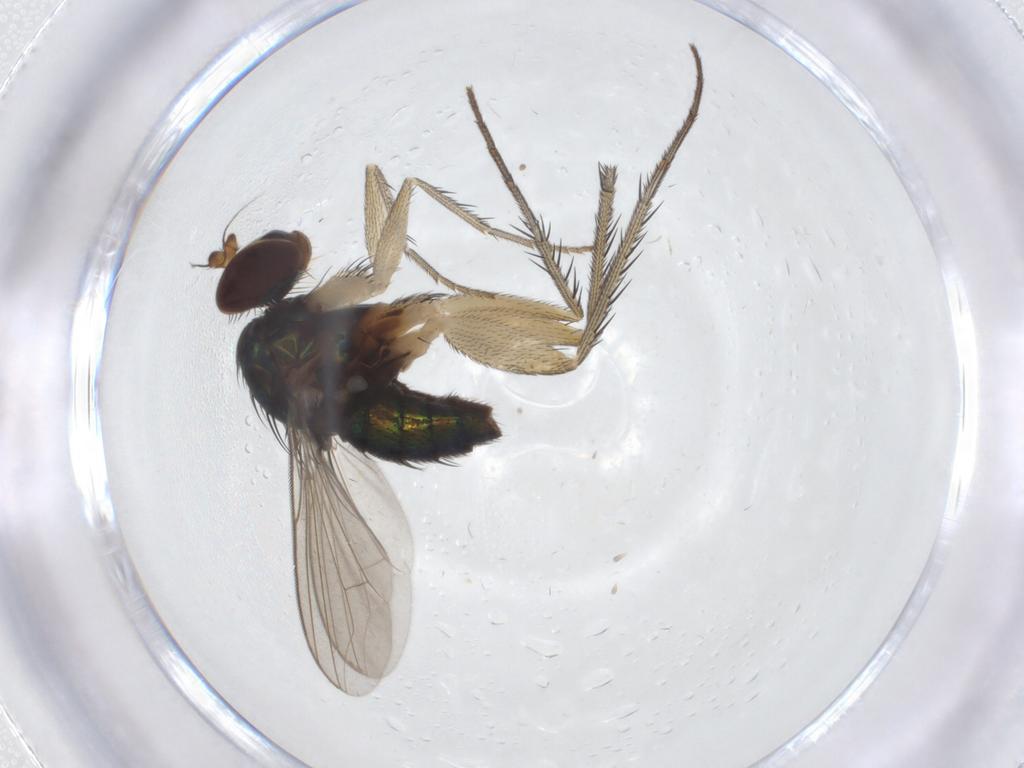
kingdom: Animalia
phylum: Arthropoda
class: Insecta
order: Diptera
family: Dolichopodidae
